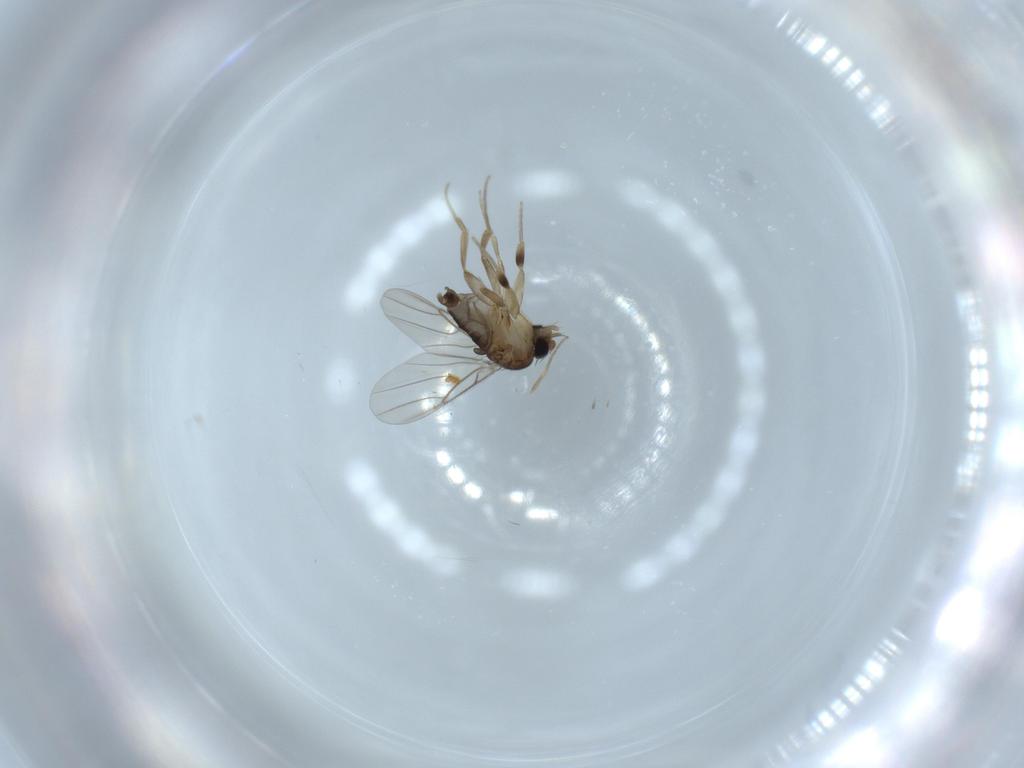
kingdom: Animalia
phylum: Arthropoda
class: Insecta
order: Diptera
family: Phoridae
